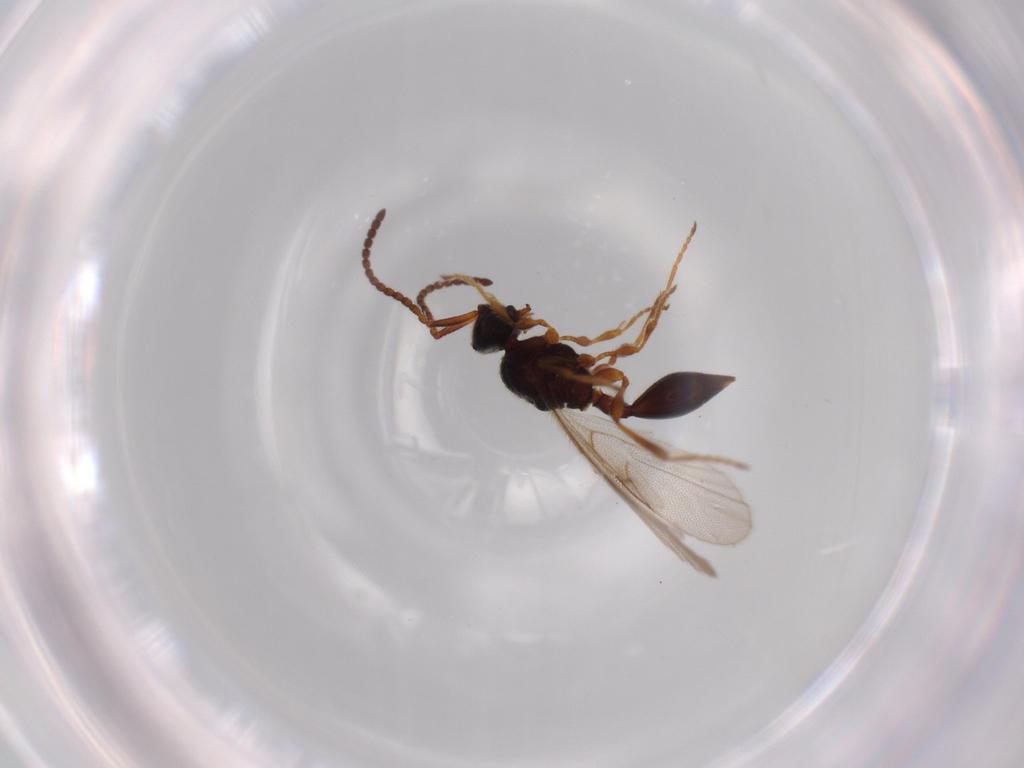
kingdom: Animalia
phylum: Arthropoda
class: Insecta
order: Hymenoptera
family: Diapriidae
